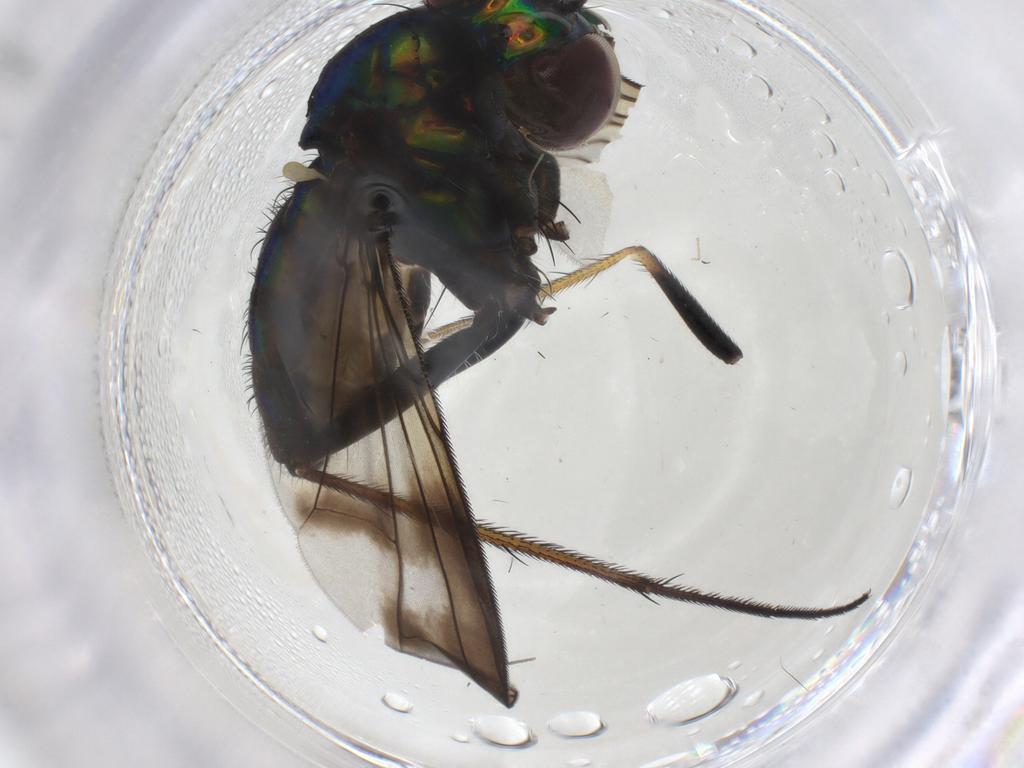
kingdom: Animalia
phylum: Arthropoda
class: Insecta
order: Diptera
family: Dolichopodidae
